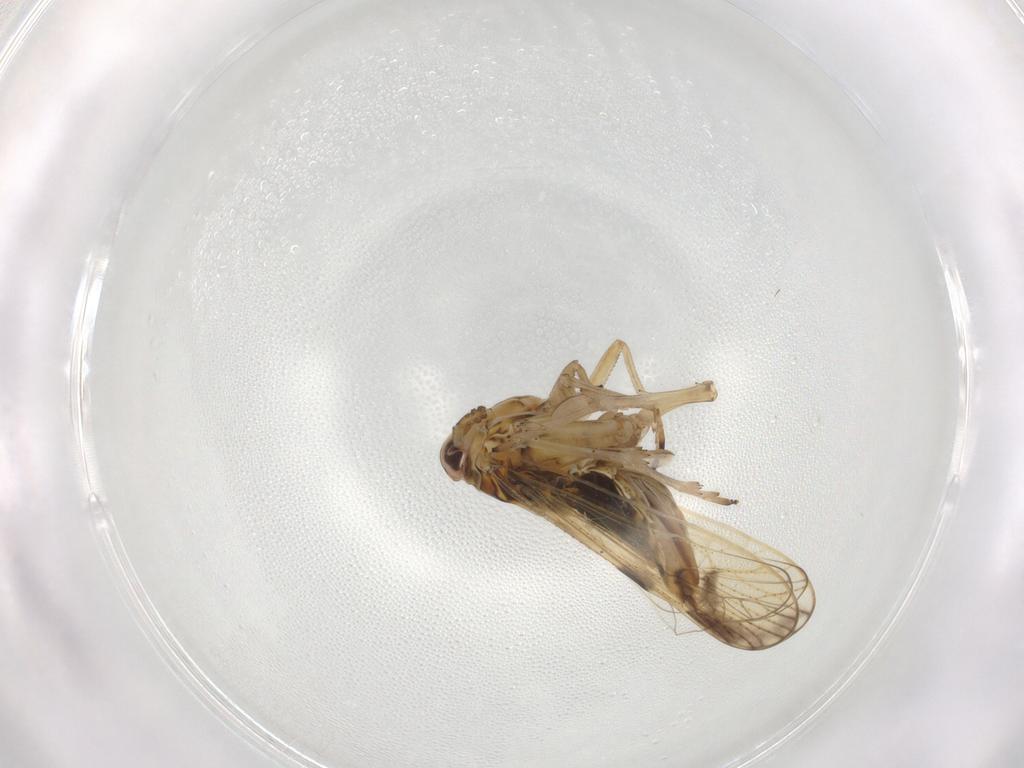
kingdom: Animalia
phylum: Arthropoda
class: Insecta
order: Hemiptera
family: Delphacidae
